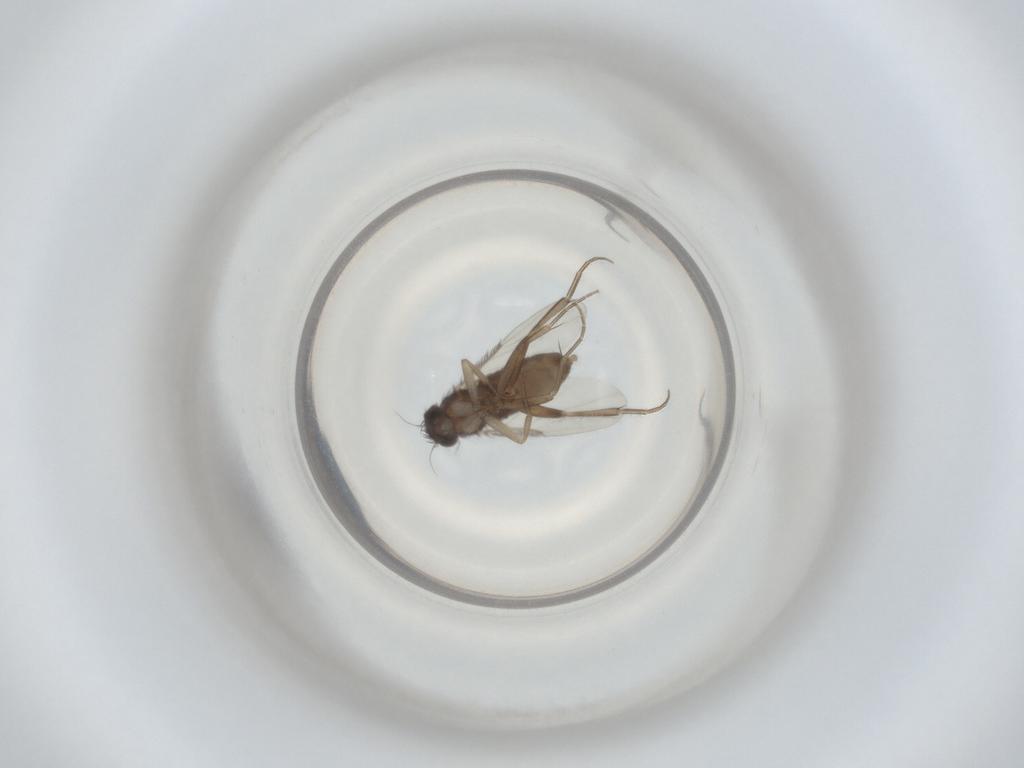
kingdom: Animalia
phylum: Arthropoda
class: Insecta
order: Diptera
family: Phoridae
